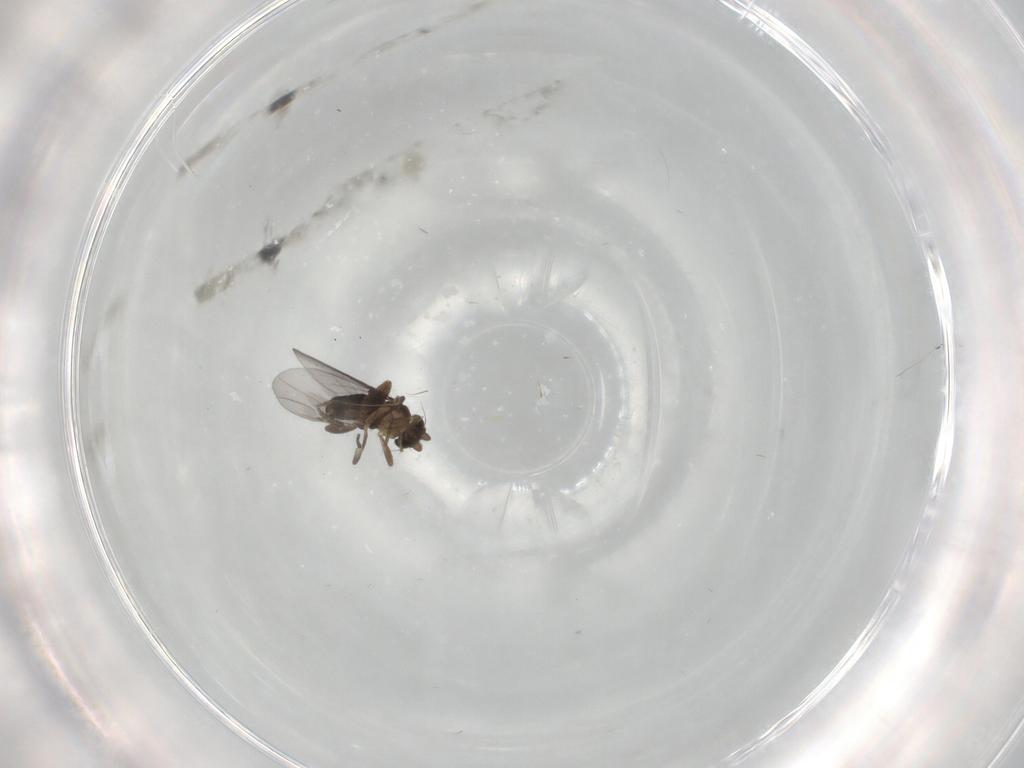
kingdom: Animalia
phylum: Arthropoda
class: Insecta
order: Diptera
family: Chironomidae
